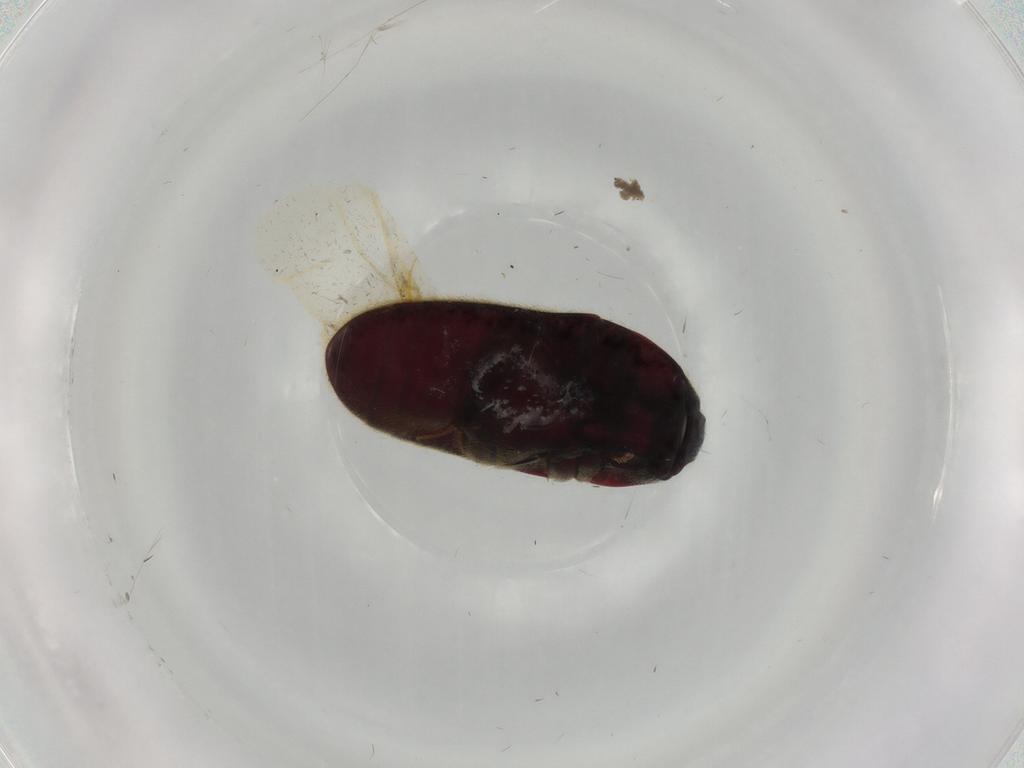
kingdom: Animalia
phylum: Arthropoda
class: Insecta
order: Coleoptera
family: Throscidae
